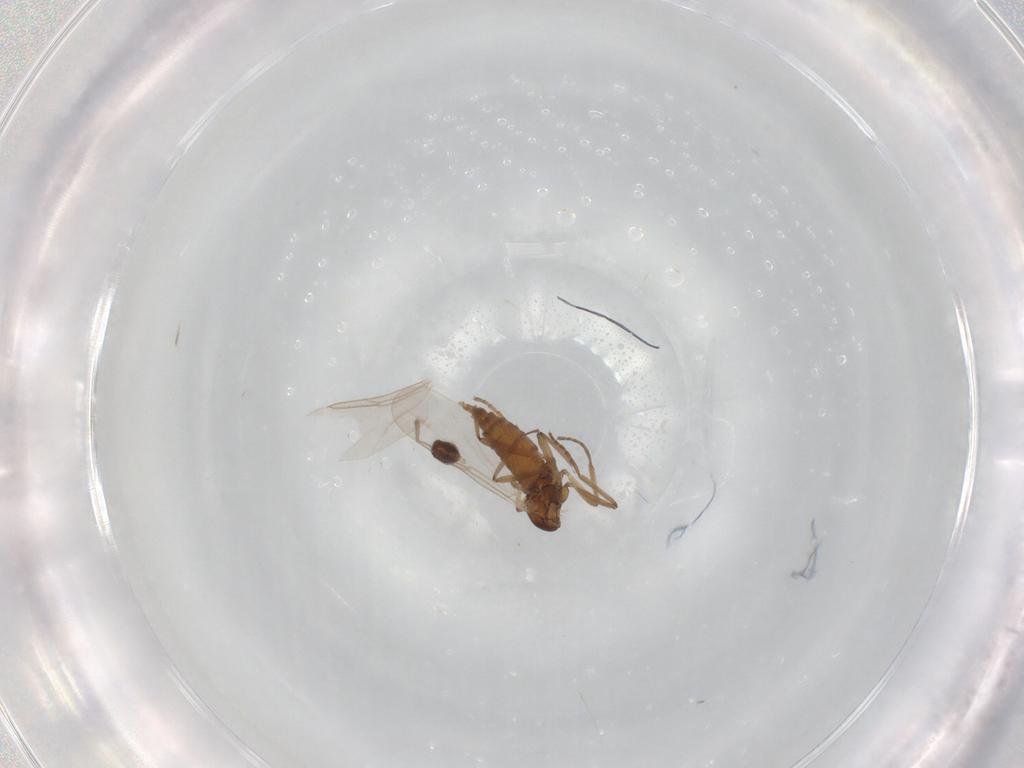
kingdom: Animalia
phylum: Arthropoda
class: Insecta
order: Diptera
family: Cecidomyiidae
